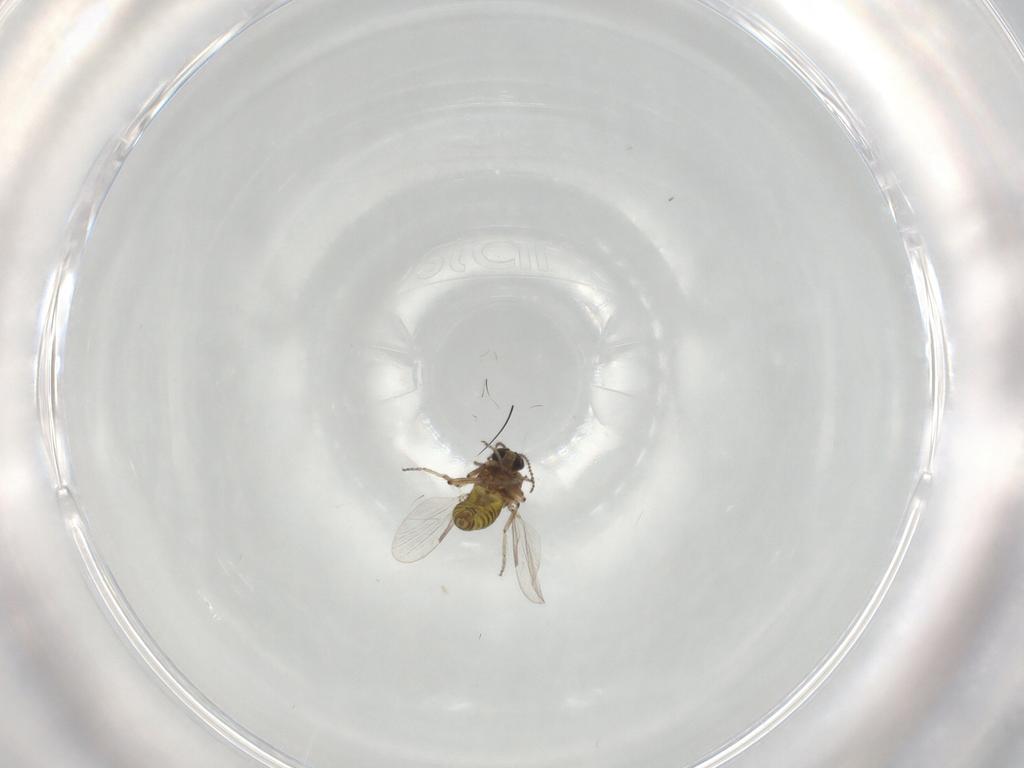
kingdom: Animalia
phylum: Arthropoda
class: Insecta
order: Diptera
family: Ceratopogonidae
